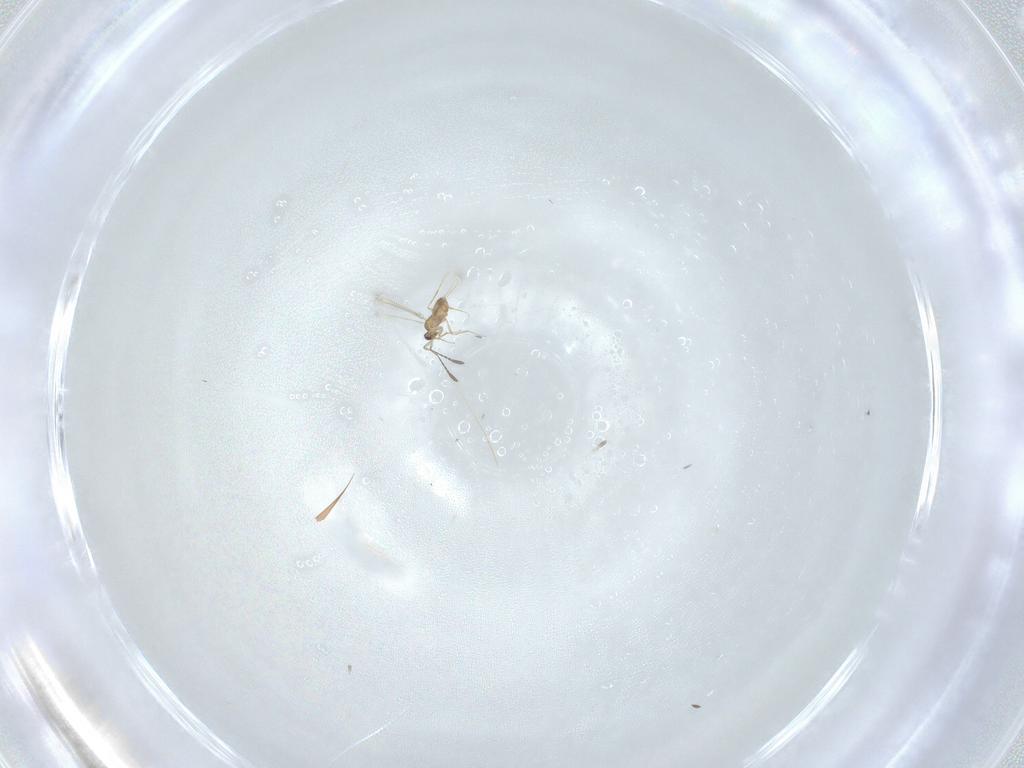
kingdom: Animalia
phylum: Arthropoda
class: Insecta
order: Hymenoptera
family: Mymaridae
